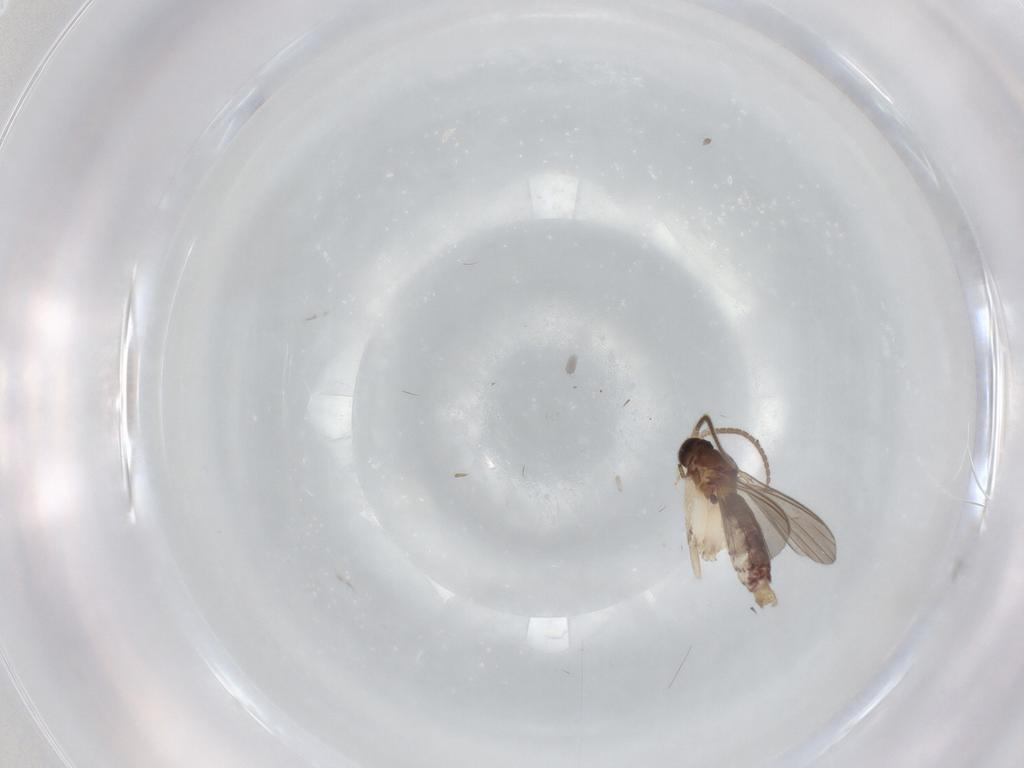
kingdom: Animalia
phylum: Arthropoda
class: Insecta
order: Diptera
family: Mycetophilidae
